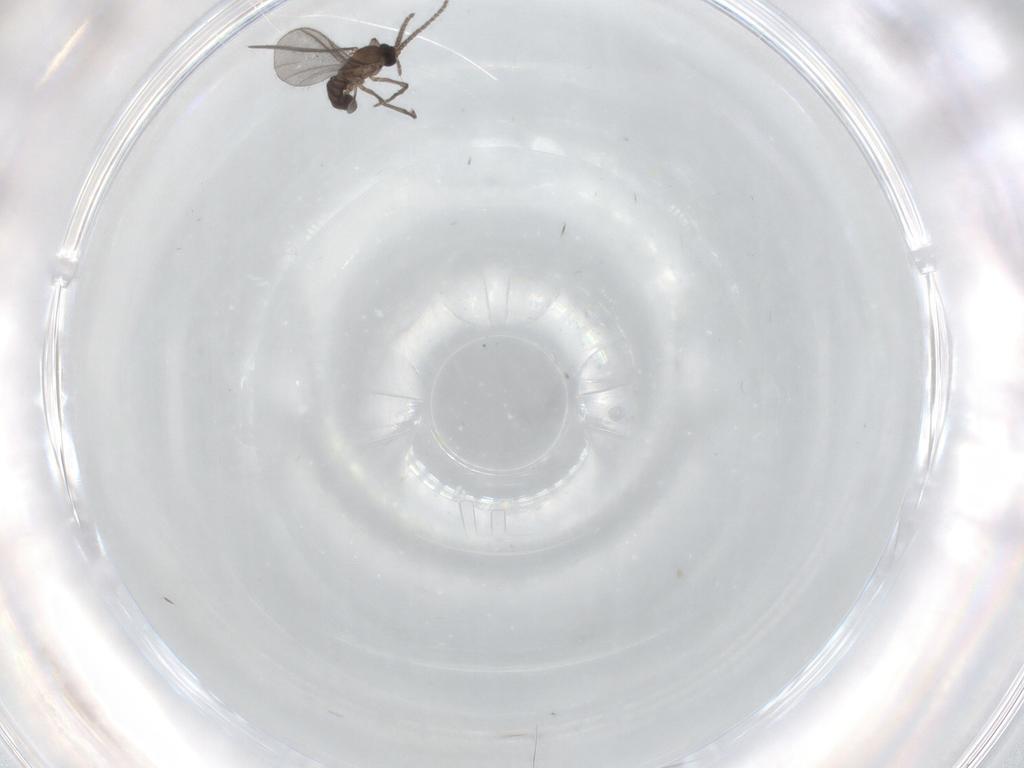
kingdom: Animalia
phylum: Arthropoda
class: Insecta
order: Diptera
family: Sciaridae
